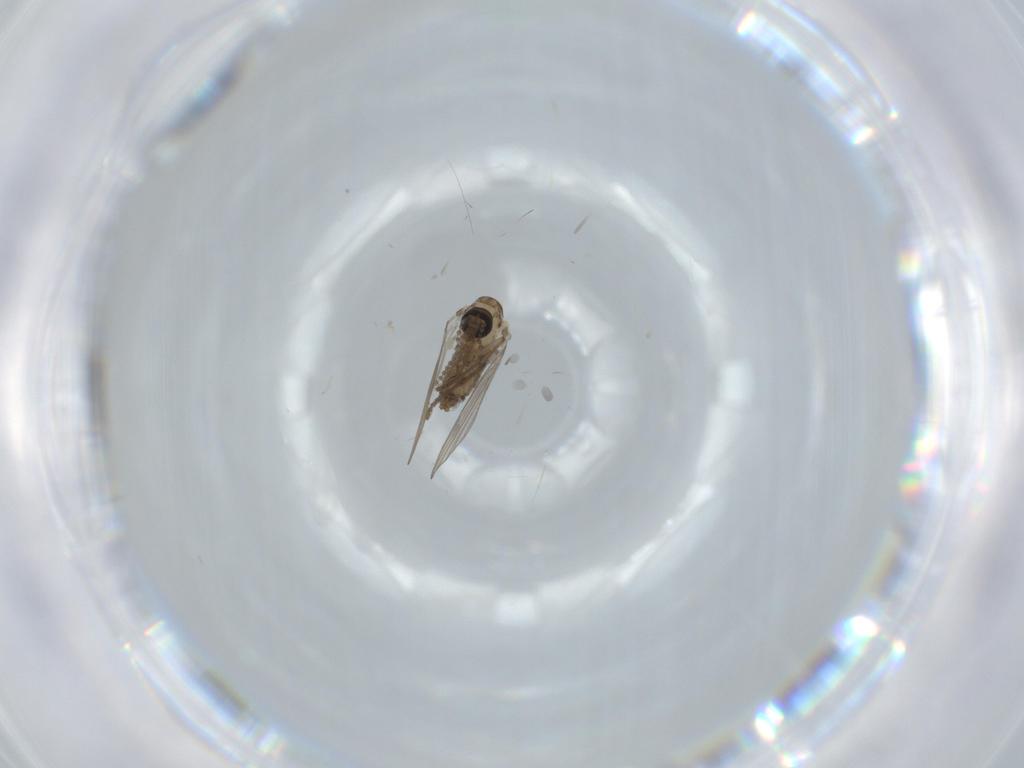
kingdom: Animalia
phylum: Arthropoda
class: Insecta
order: Diptera
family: Psychodidae
